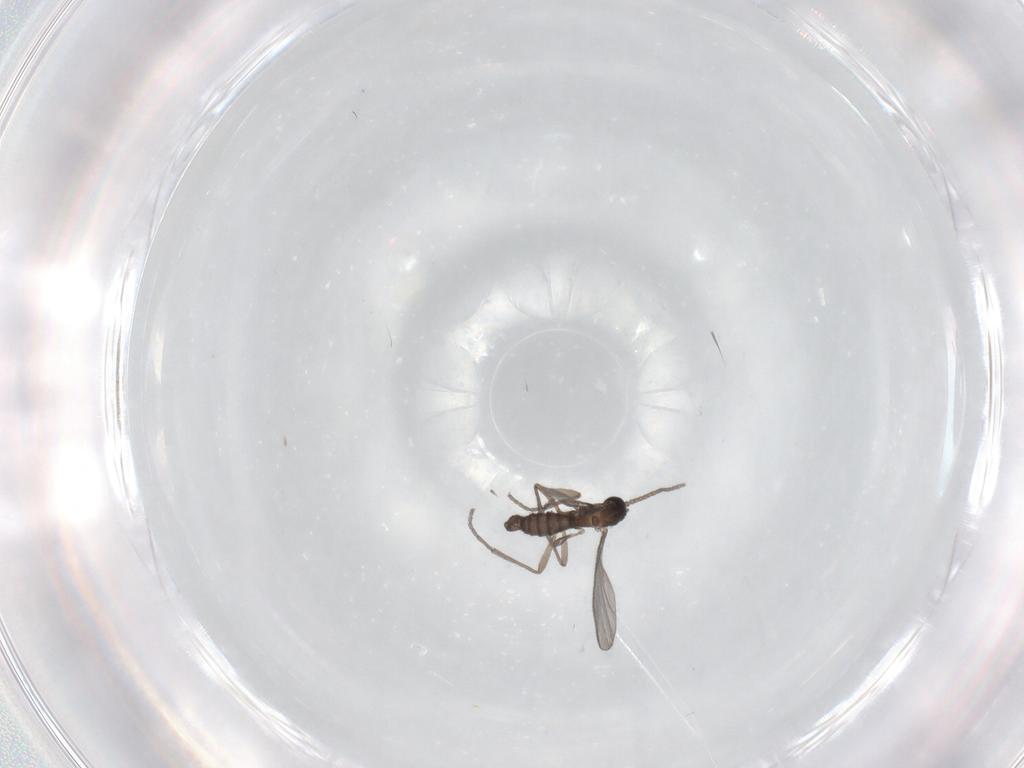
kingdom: Animalia
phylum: Arthropoda
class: Insecta
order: Diptera
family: Sciaridae
